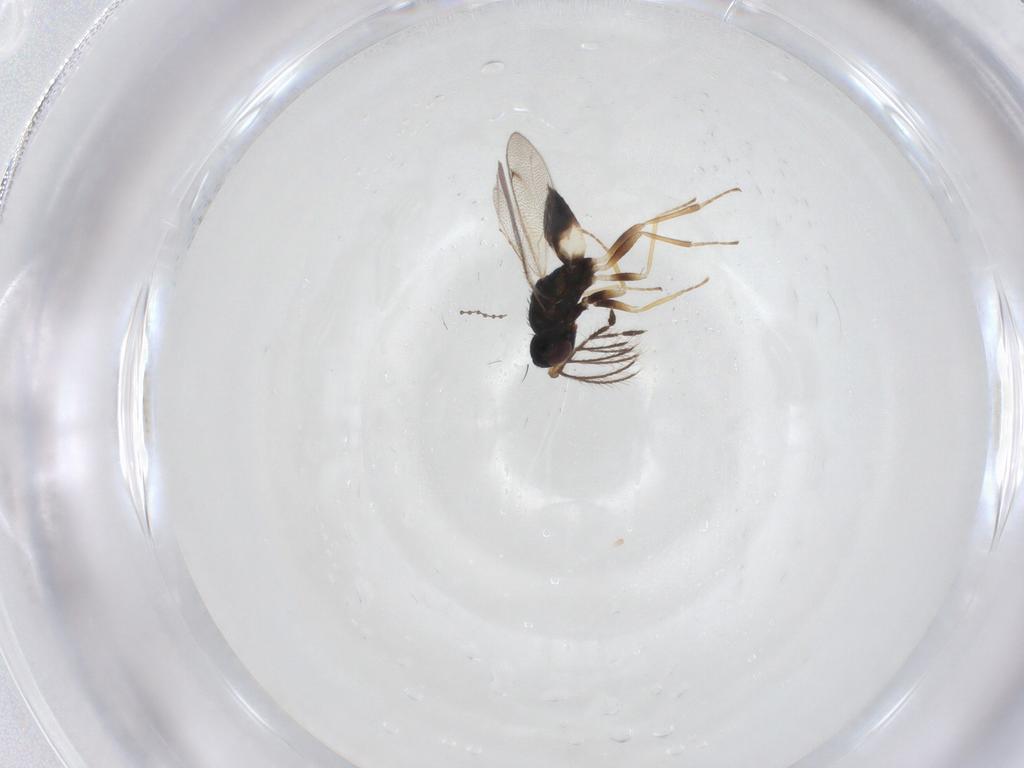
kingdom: Animalia
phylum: Arthropoda
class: Insecta
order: Hymenoptera
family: Eulophidae
